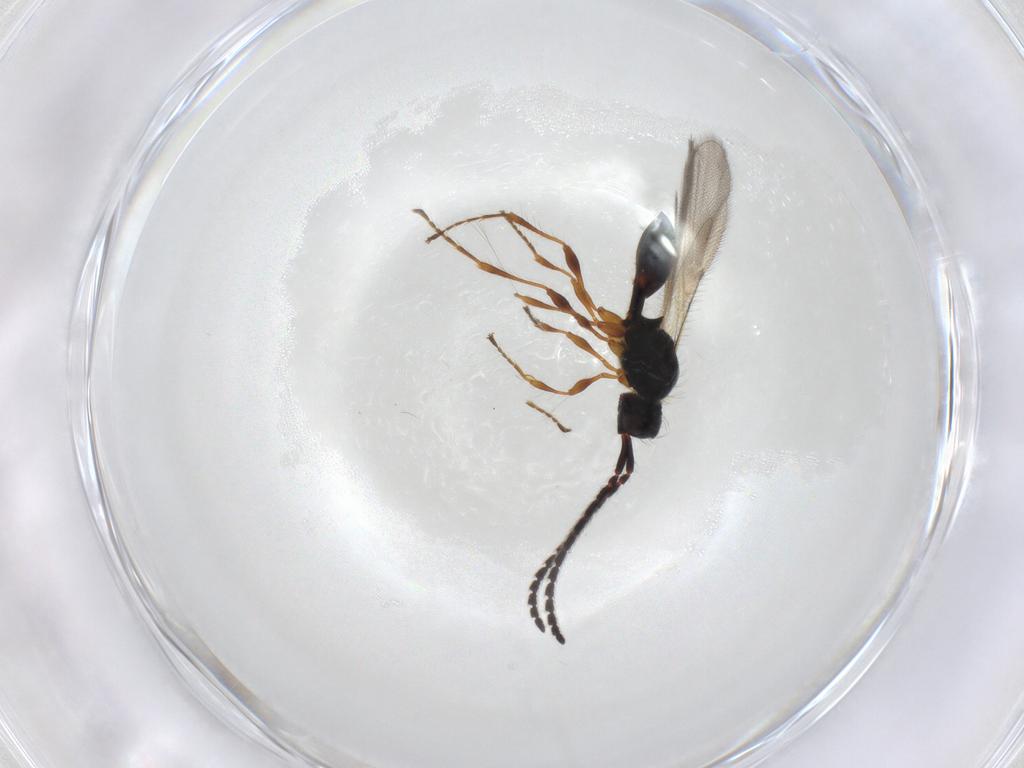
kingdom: Animalia
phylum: Arthropoda
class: Insecta
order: Hymenoptera
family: Diapriidae
